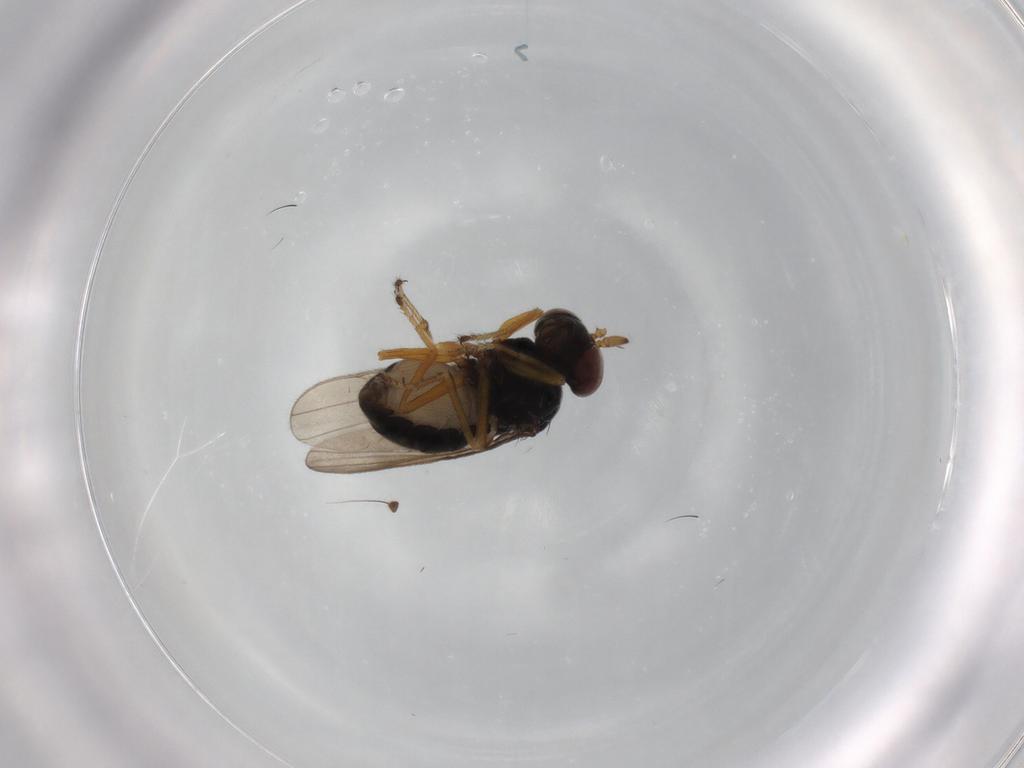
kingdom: Animalia
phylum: Arthropoda
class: Insecta
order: Diptera
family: Ephydridae
